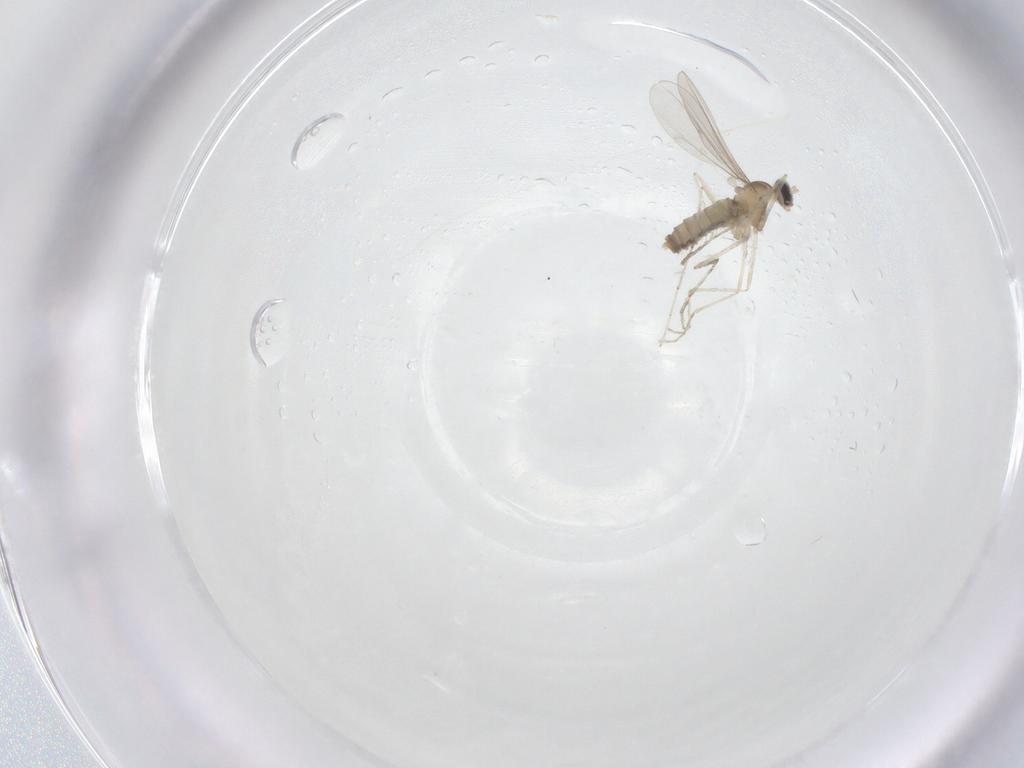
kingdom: Animalia
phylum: Arthropoda
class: Insecta
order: Diptera
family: Cecidomyiidae
